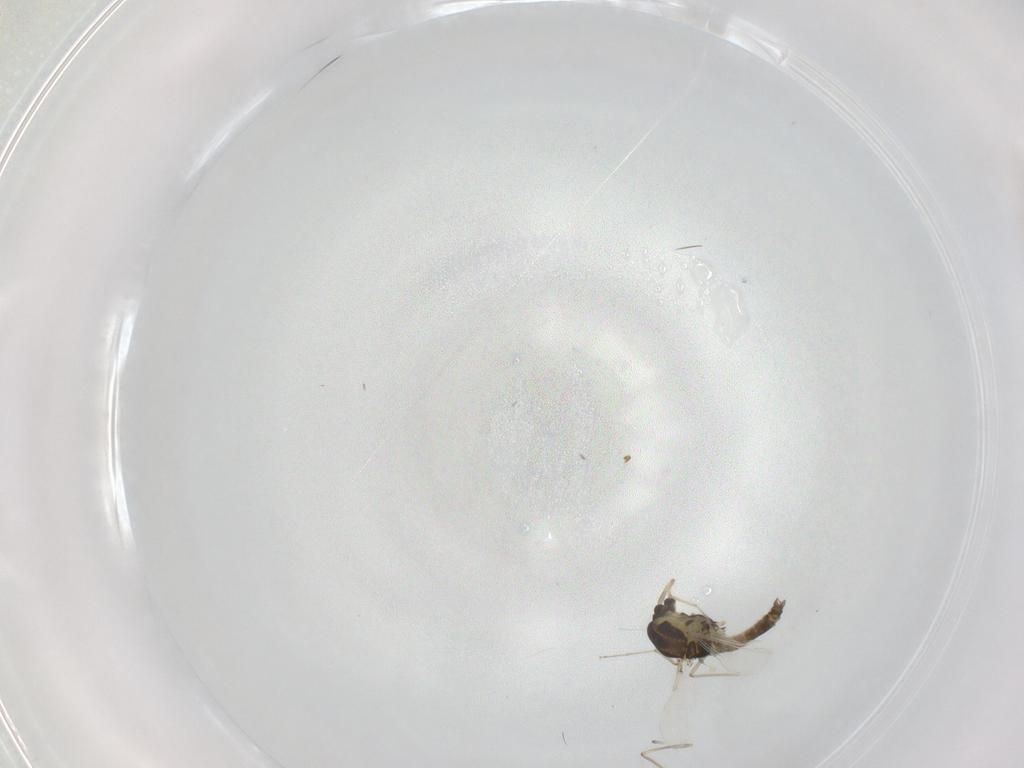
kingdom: Animalia
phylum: Arthropoda
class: Insecta
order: Diptera
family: Chironomidae
